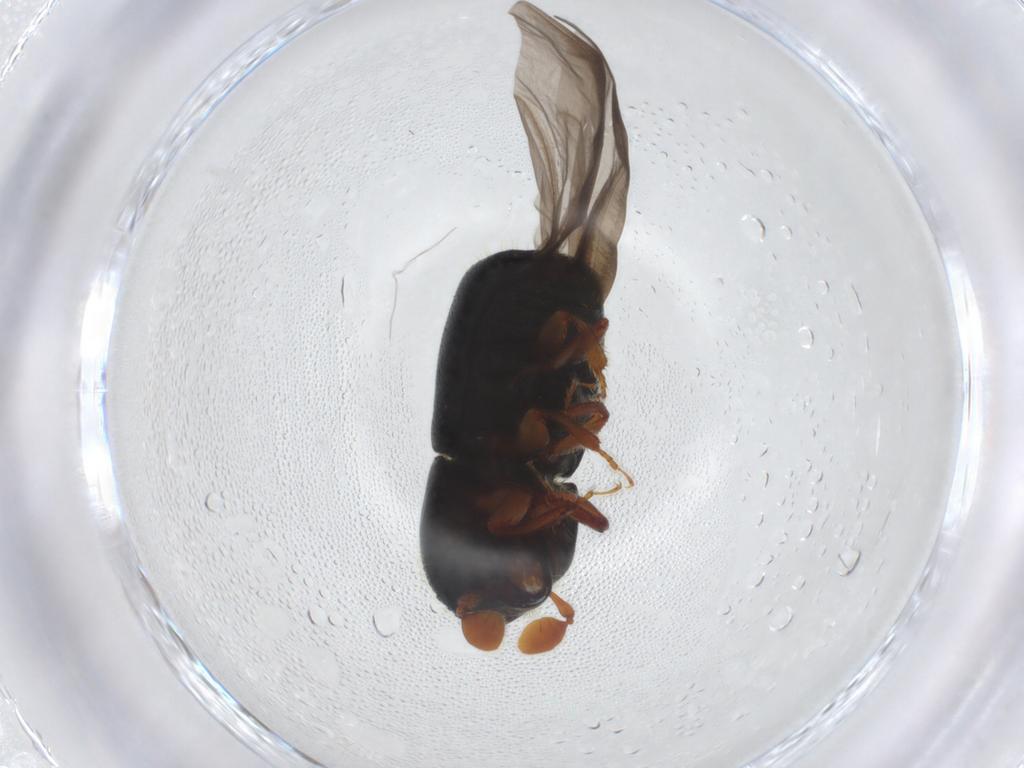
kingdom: Animalia
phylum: Arthropoda
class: Insecta
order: Coleoptera
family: Curculionidae
